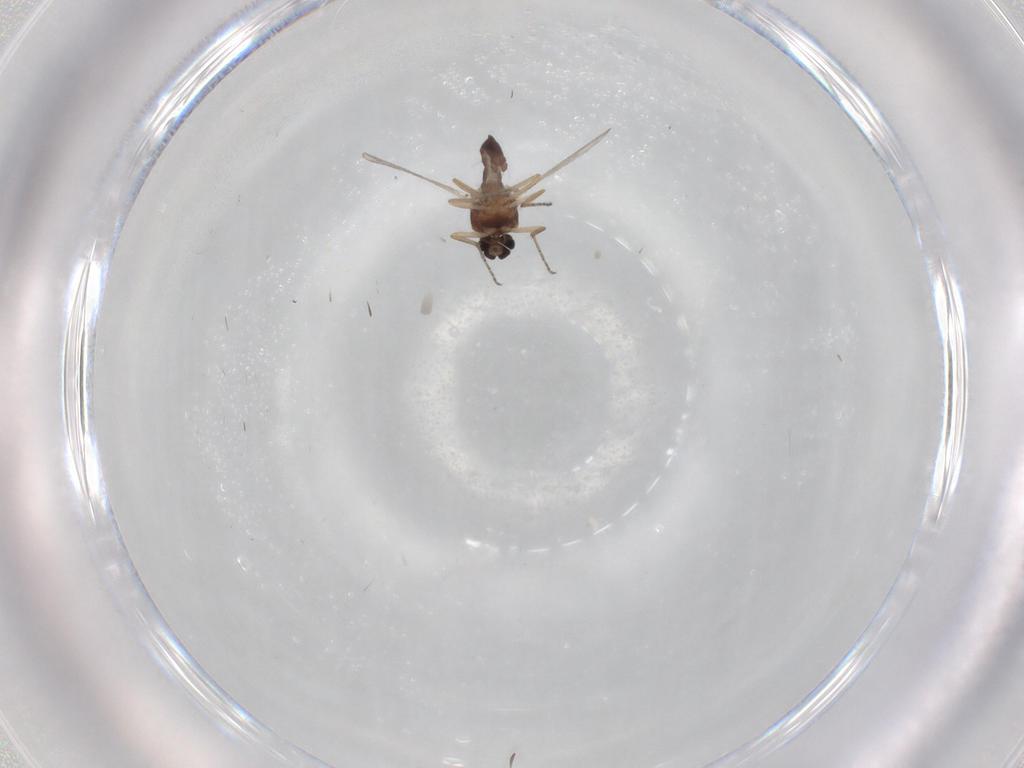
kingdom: Animalia
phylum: Arthropoda
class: Insecta
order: Diptera
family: Ceratopogonidae
